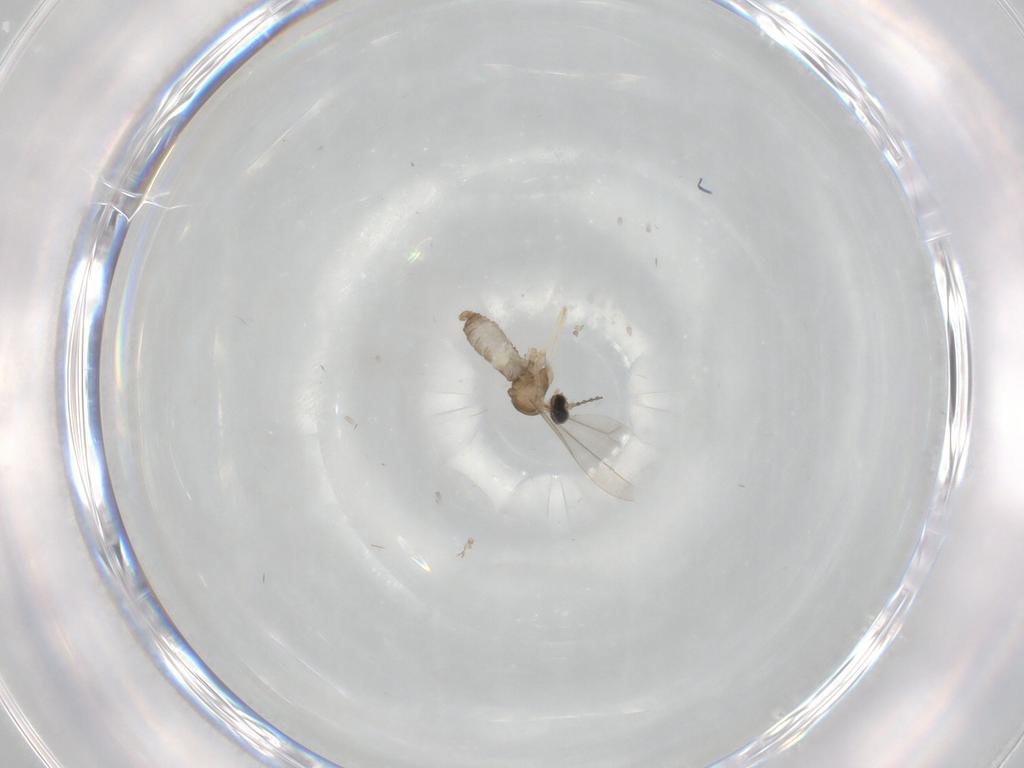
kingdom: Animalia
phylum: Arthropoda
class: Insecta
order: Diptera
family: Cecidomyiidae
